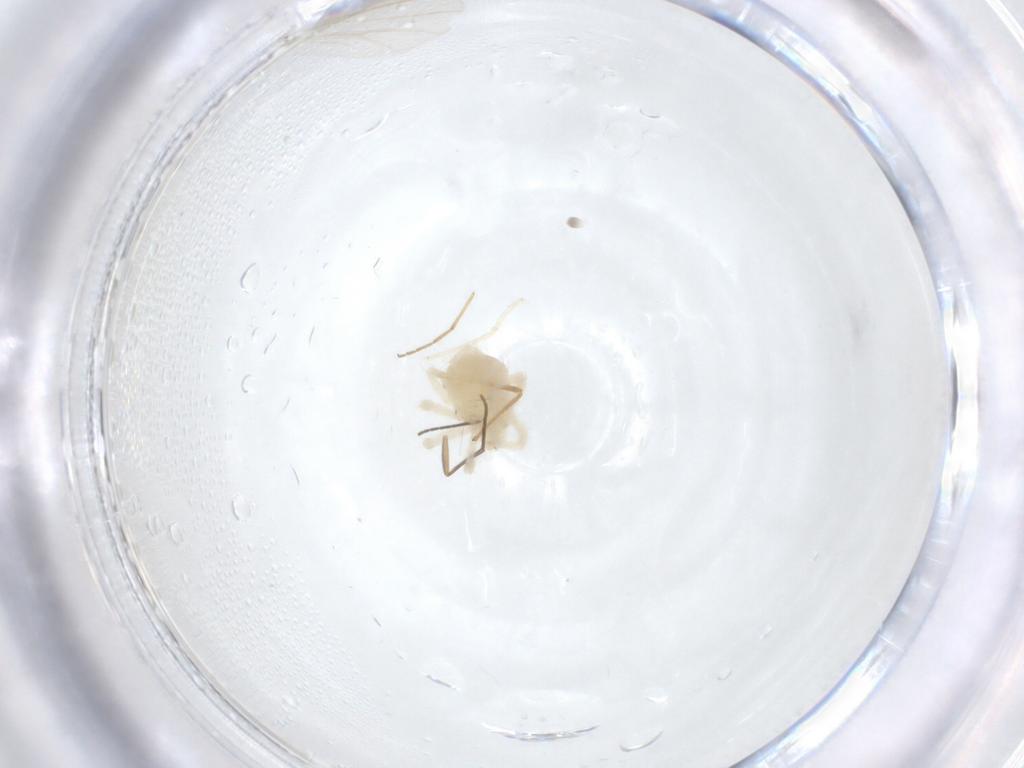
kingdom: Animalia
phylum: Arthropoda
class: Arachnida
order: Trombidiformes
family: Anystidae
